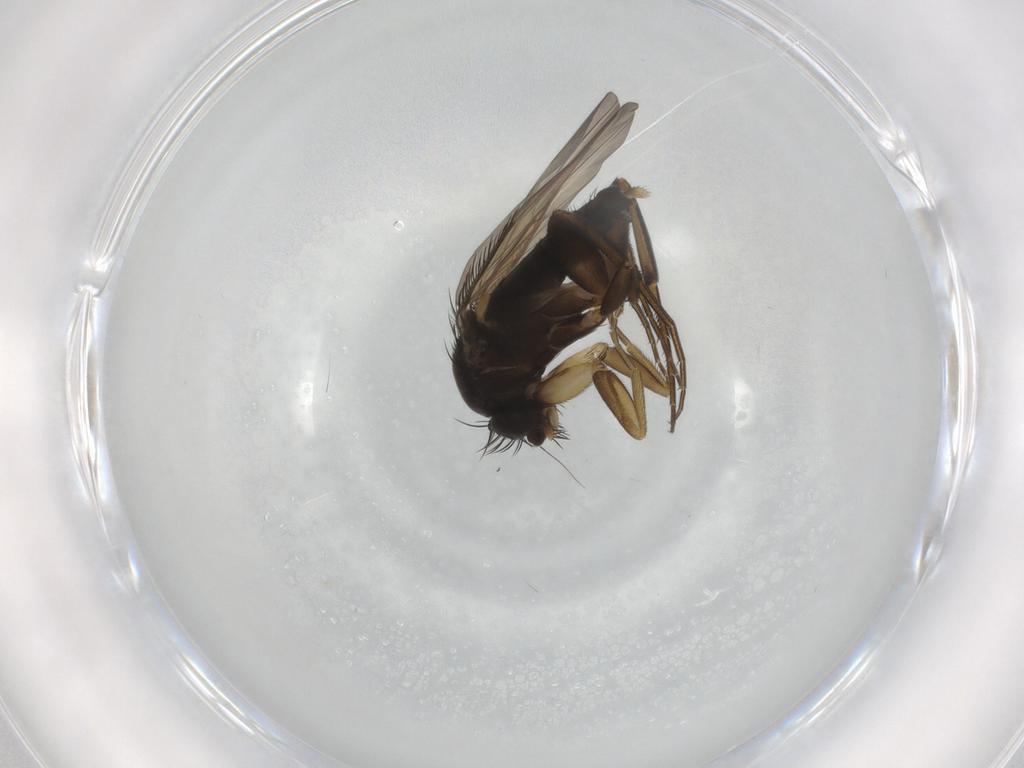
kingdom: Animalia
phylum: Arthropoda
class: Insecta
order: Diptera
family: Phoridae
